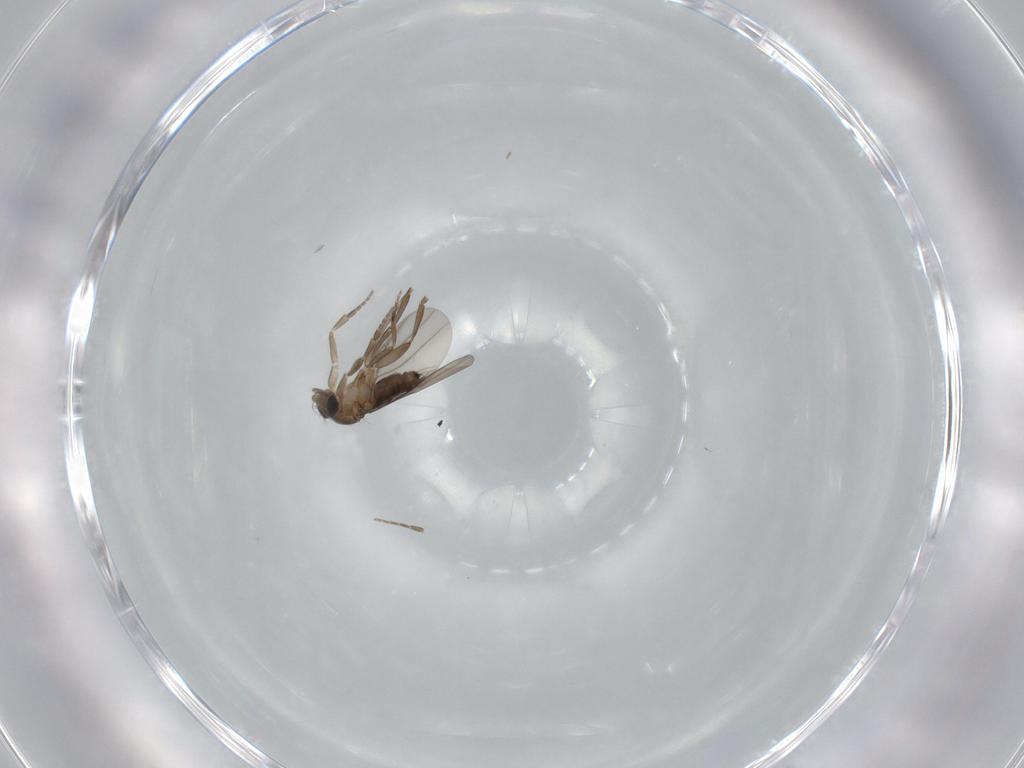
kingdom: Animalia
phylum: Arthropoda
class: Insecta
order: Diptera
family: Phoridae
